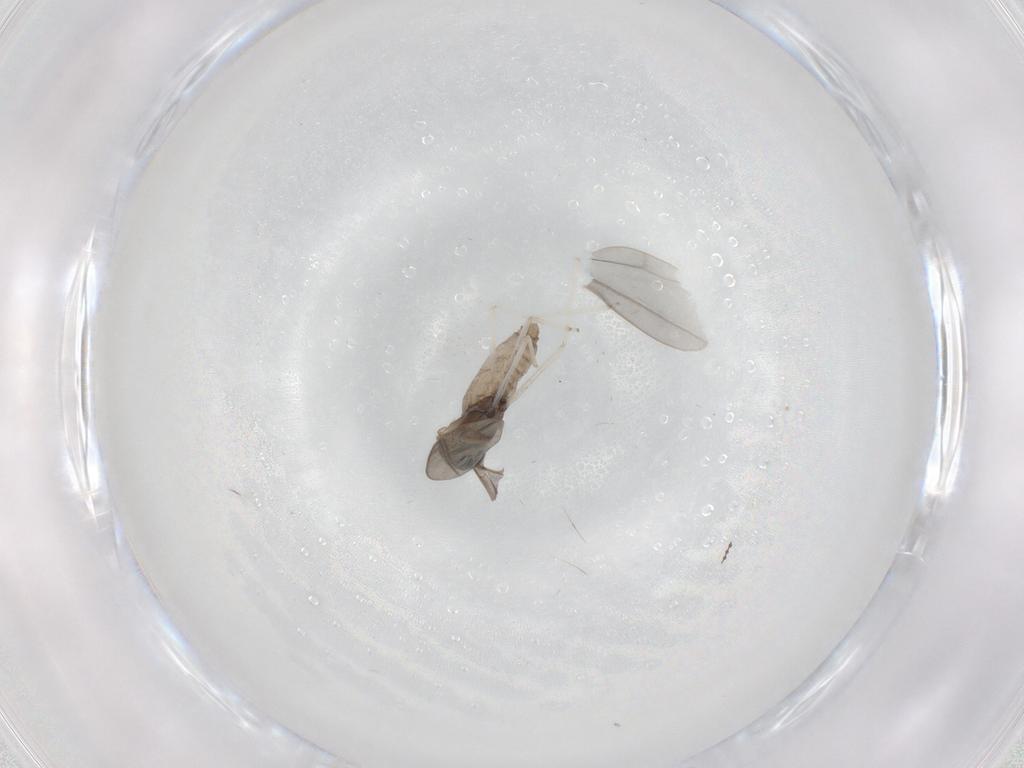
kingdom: Animalia
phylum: Arthropoda
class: Insecta
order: Diptera
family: Cecidomyiidae
